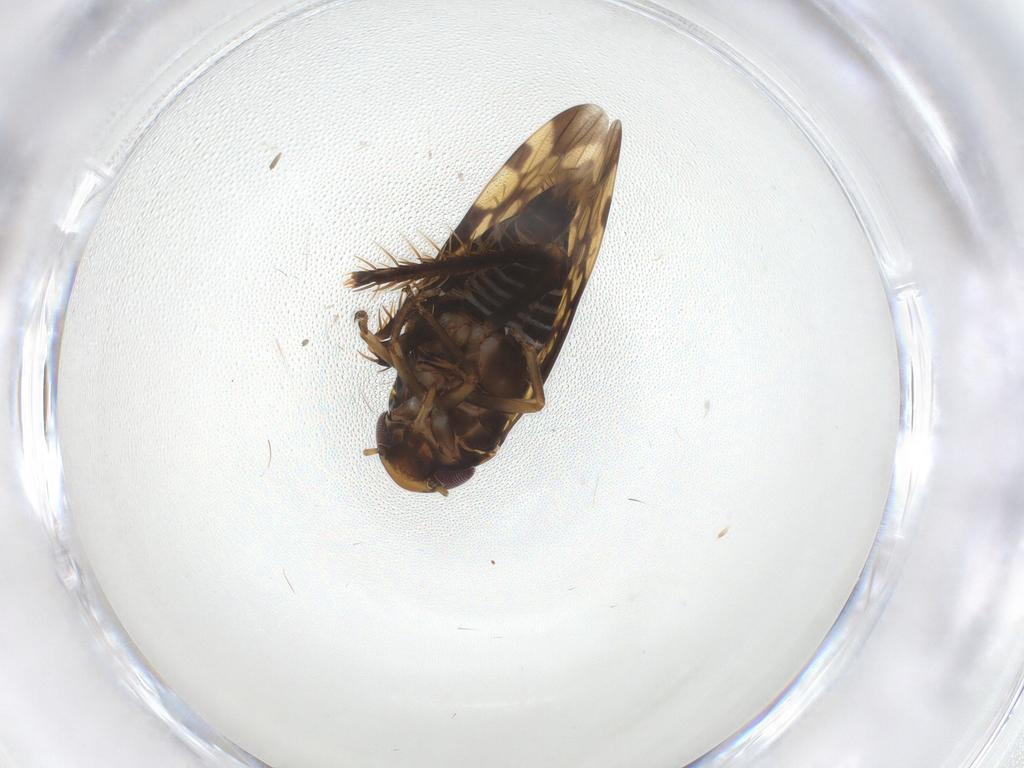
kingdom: Animalia
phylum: Arthropoda
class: Insecta
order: Hemiptera
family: Cicadellidae
